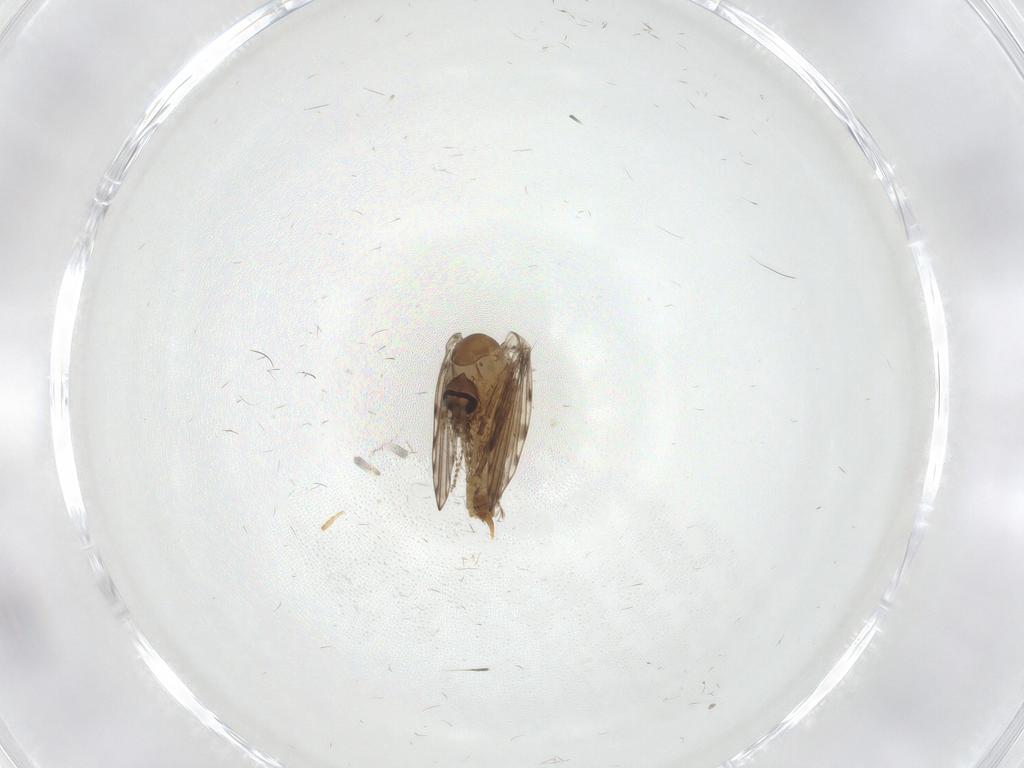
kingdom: Animalia
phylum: Arthropoda
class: Insecta
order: Diptera
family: Psychodidae
